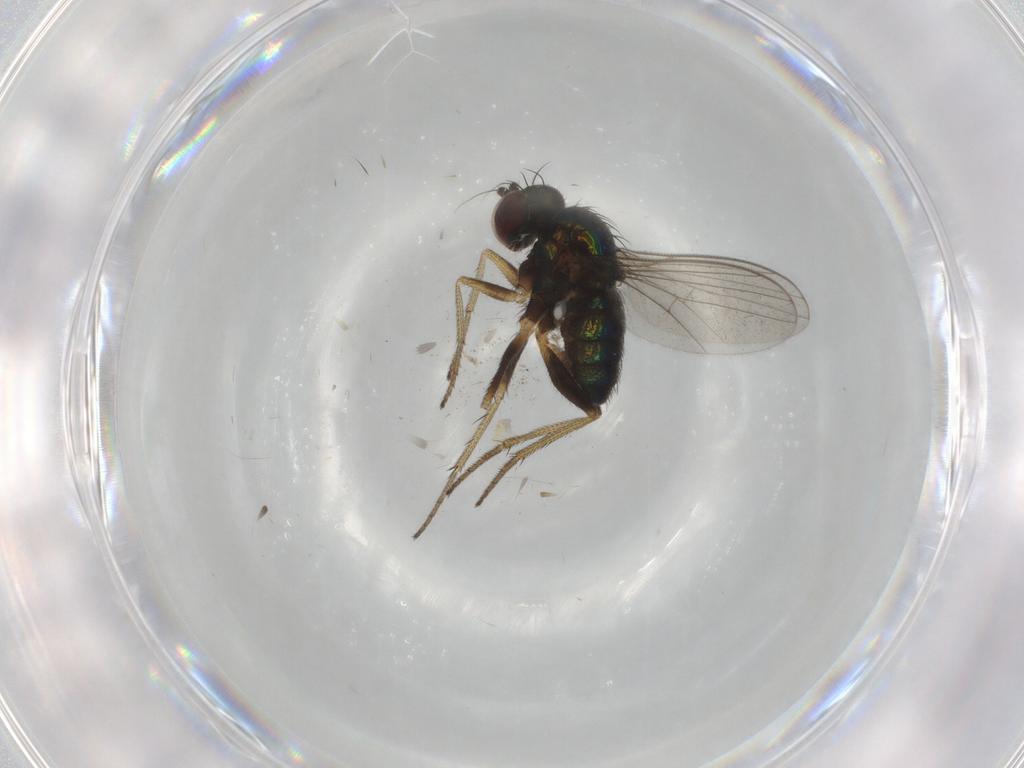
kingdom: Animalia
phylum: Arthropoda
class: Insecta
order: Diptera
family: Dolichopodidae
